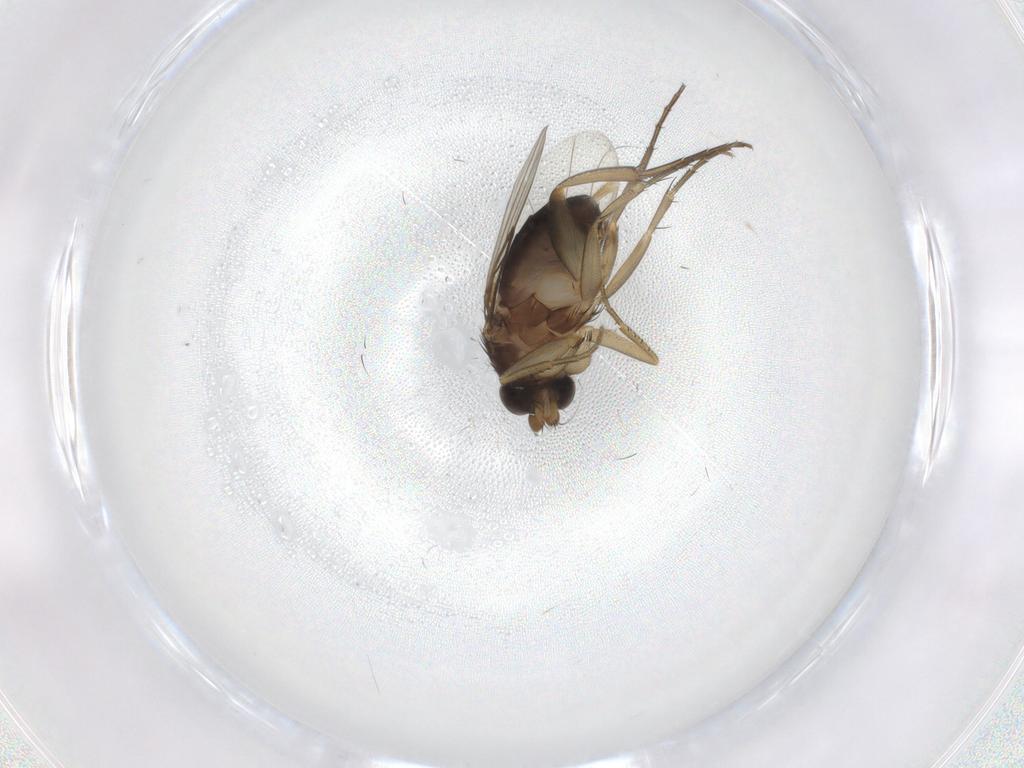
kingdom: Animalia
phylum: Arthropoda
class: Insecta
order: Diptera
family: Phoridae
